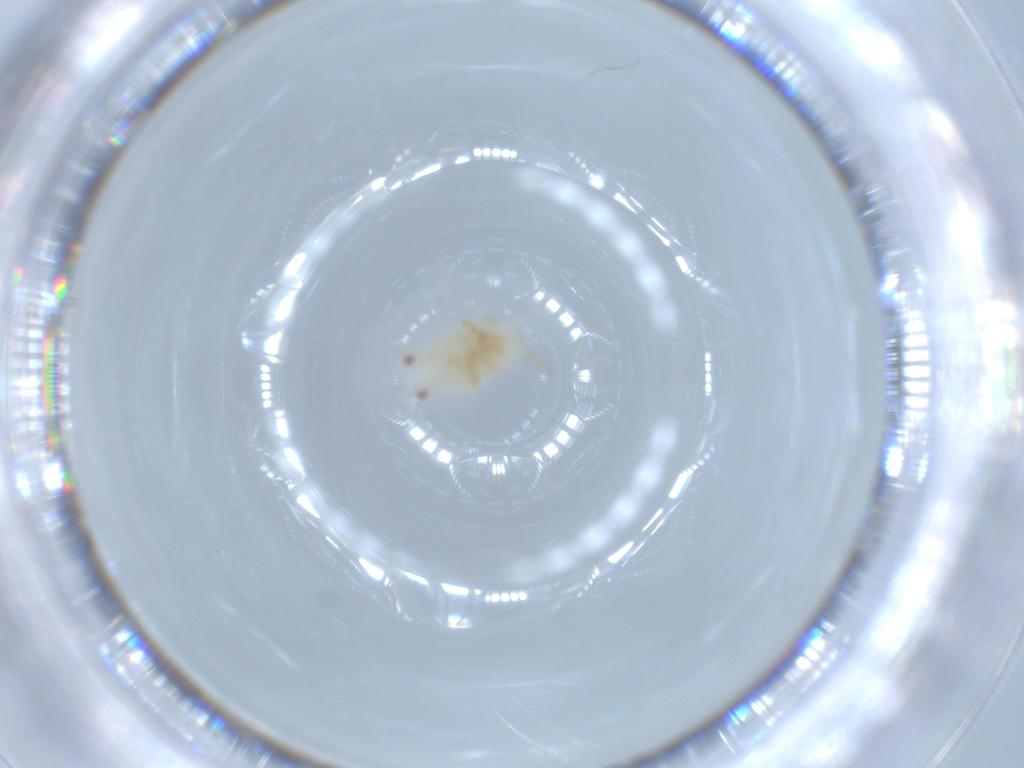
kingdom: Animalia
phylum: Arthropoda
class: Insecta
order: Hemiptera
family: Flatidae
